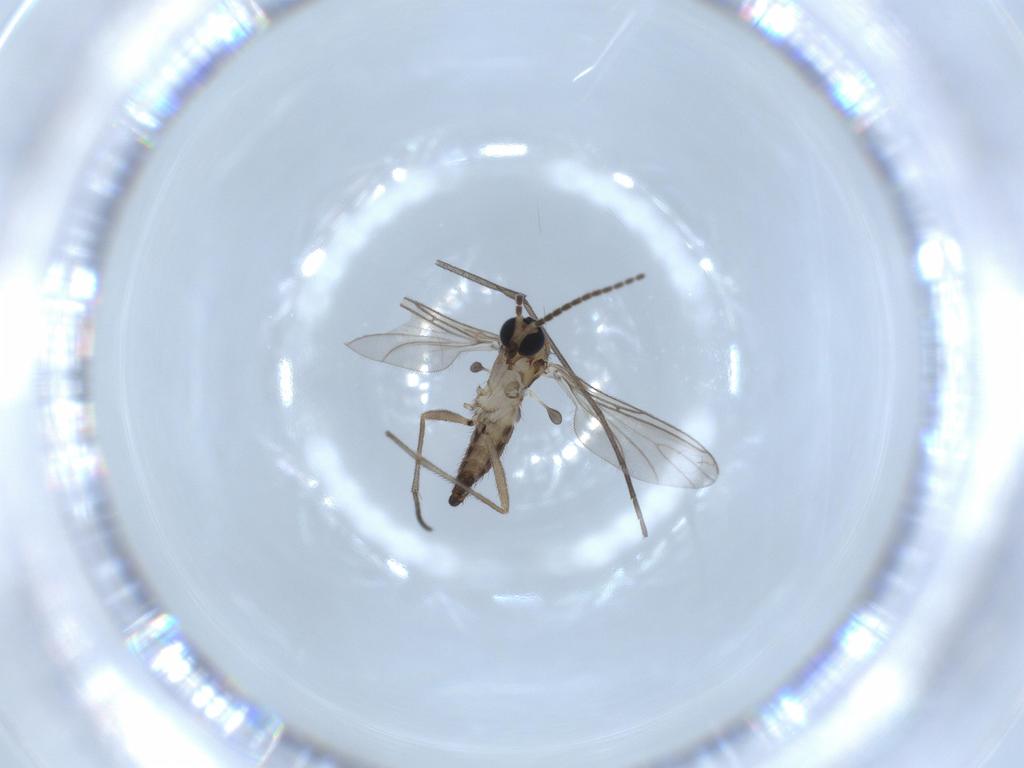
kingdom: Animalia
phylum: Arthropoda
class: Insecta
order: Diptera
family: Sciaridae
